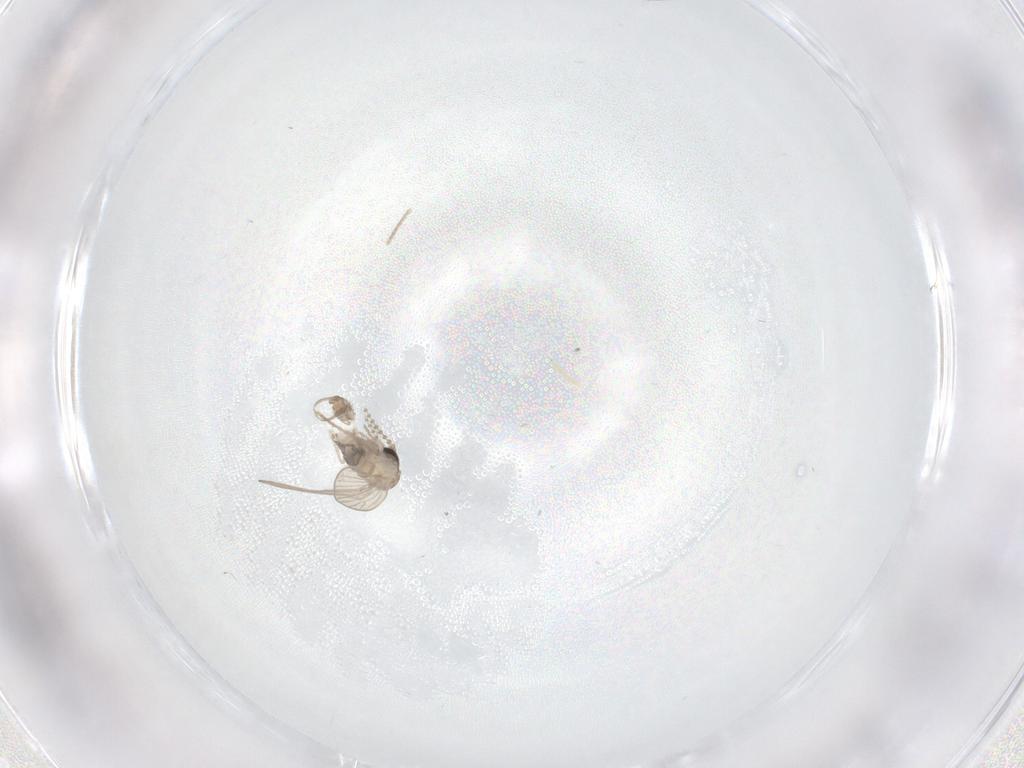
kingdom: Animalia
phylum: Arthropoda
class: Insecta
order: Diptera
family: Psychodidae
